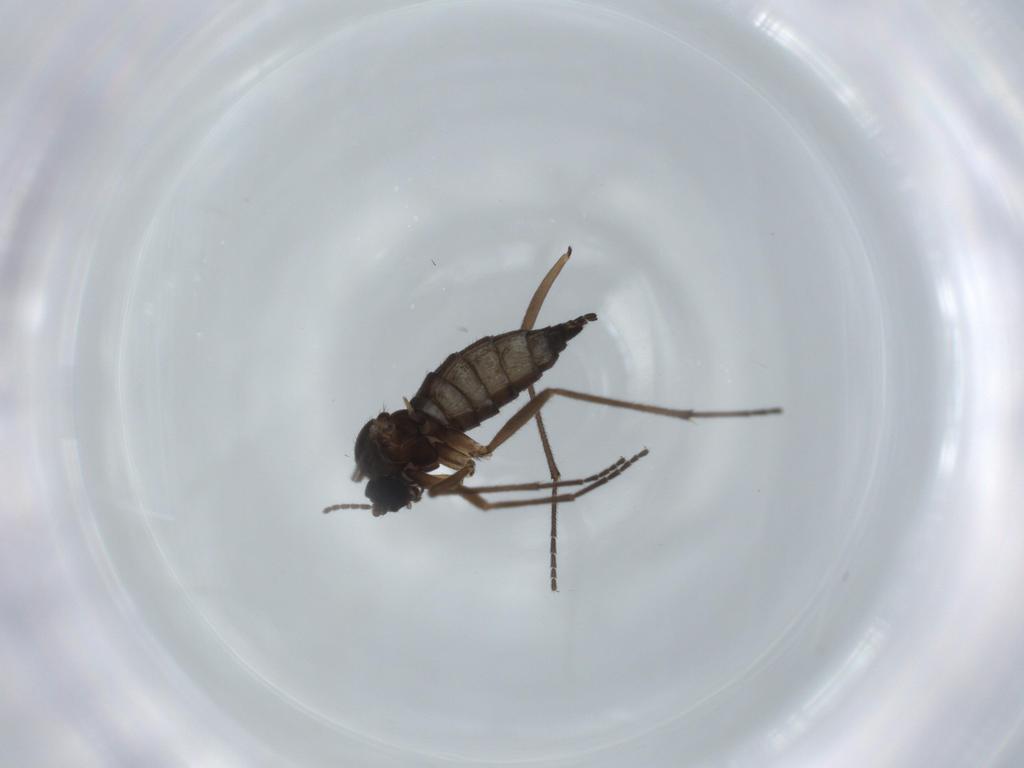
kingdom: Animalia
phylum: Arthropoda
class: Insecta
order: Diptera
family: Sciaridae
